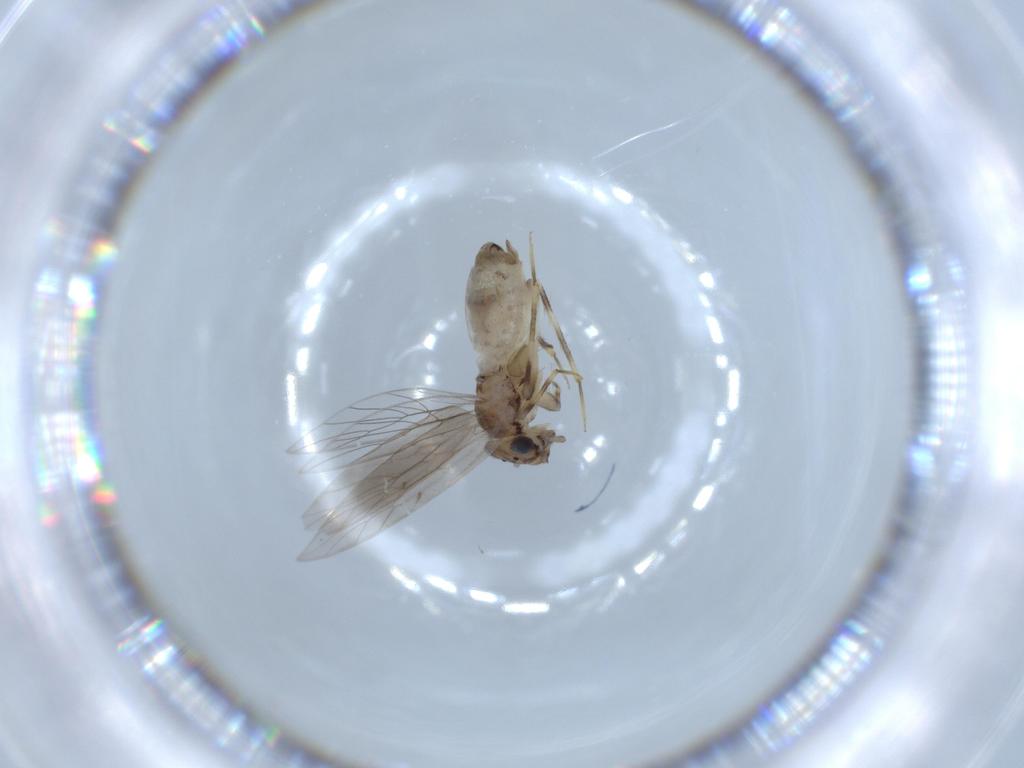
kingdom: Animalia
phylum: Arthropoda
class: Insecta
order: Psocodea
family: Lepidopsocidae
